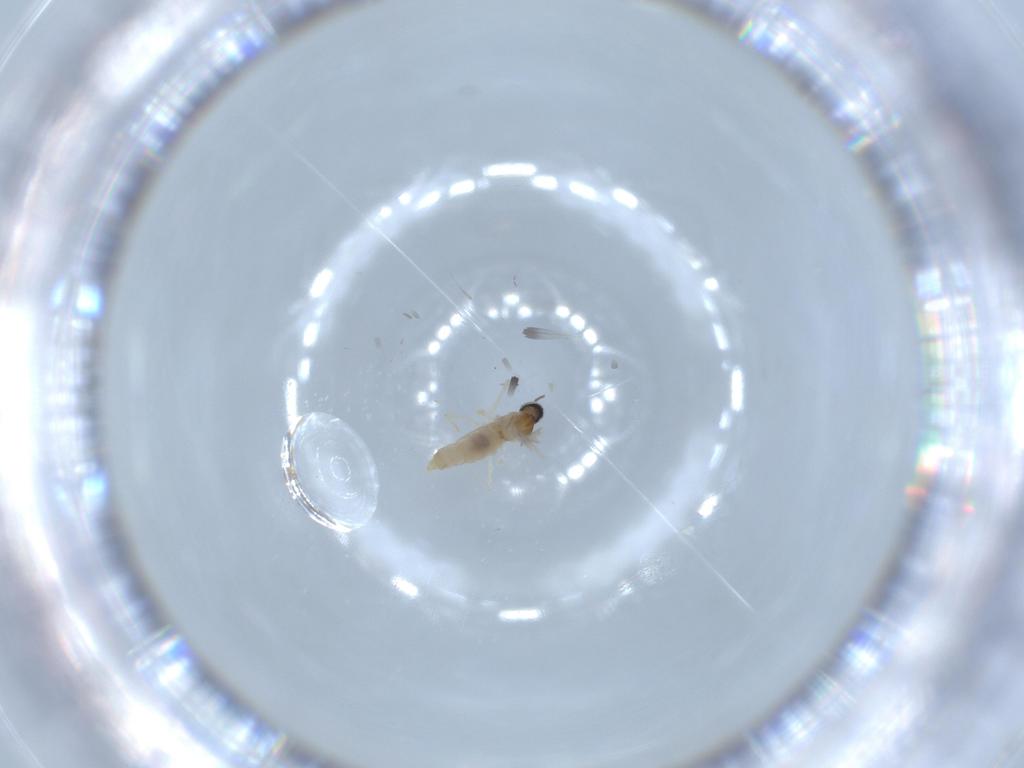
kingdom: Animalia
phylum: Arthropoda
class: Insecta
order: Diptera
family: Cecidomyiidae
